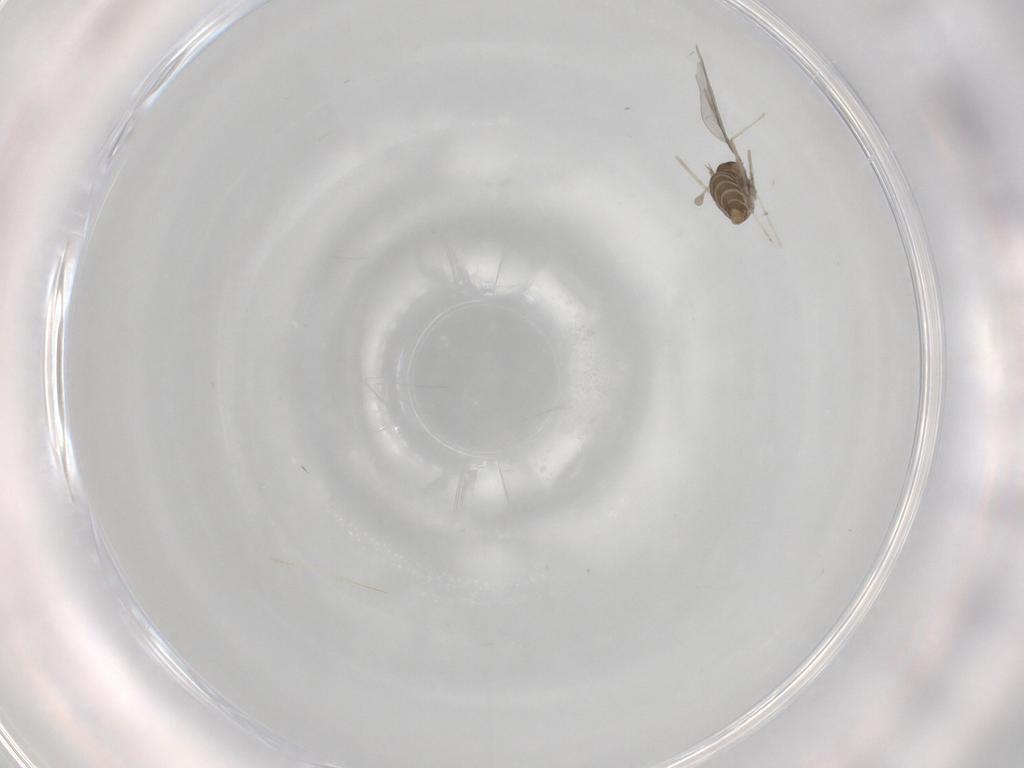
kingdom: Animalia
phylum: Arthropoda
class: Insecta
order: Diptera
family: Cecidomyiidae
